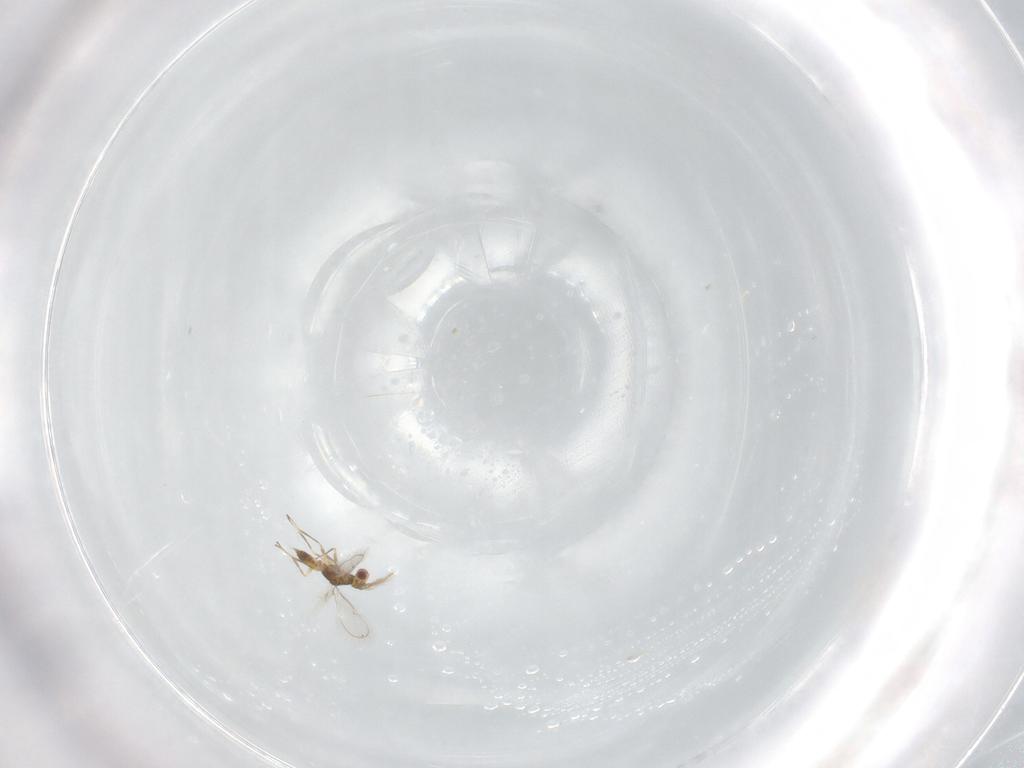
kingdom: Animalia
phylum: Arthropoda
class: Insecta
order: Hymenoptera
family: Eulophidae
